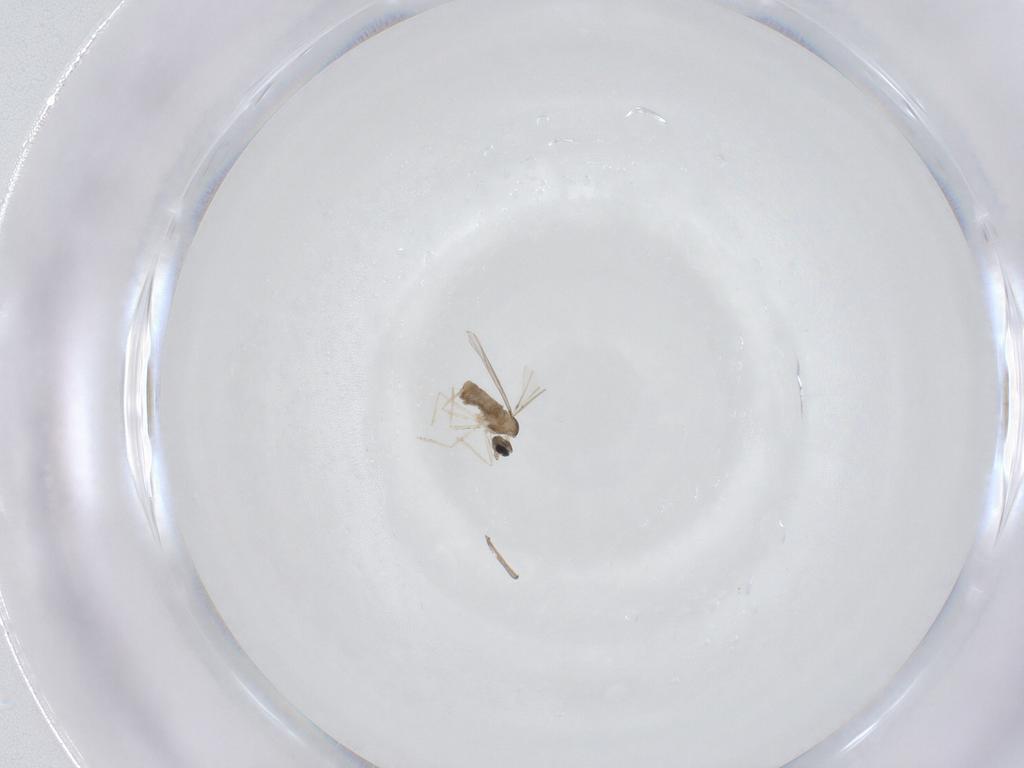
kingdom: Animalia
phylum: Arthropoda
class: Insecta
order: Diptera
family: Cecidomyiidae
